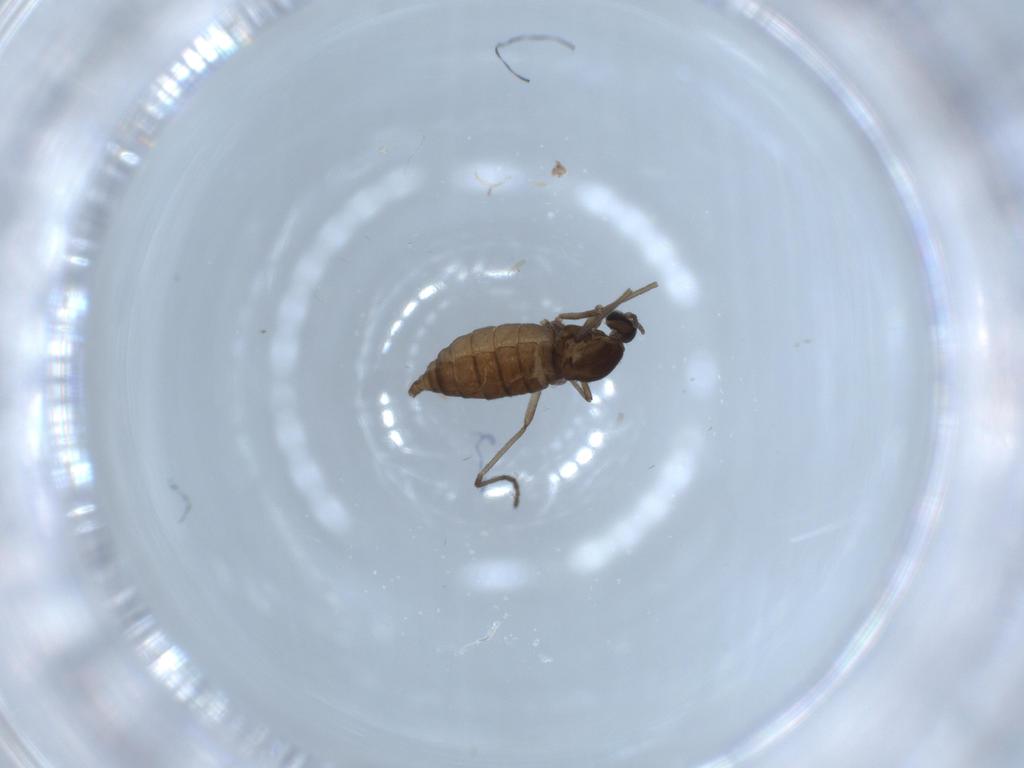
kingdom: Animalia
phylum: Arthropoda
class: Insecta
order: Diptera
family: Cecidomyiidae
